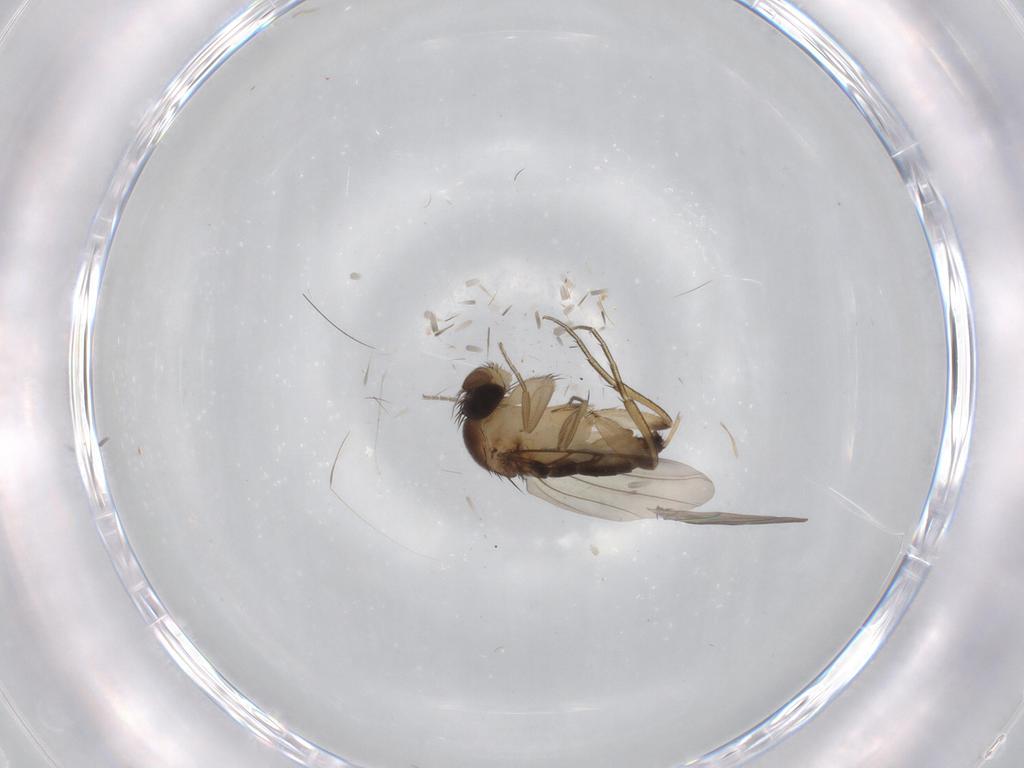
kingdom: Animalia
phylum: Arthropoda
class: Insecta
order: Diptera
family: Phoridae
